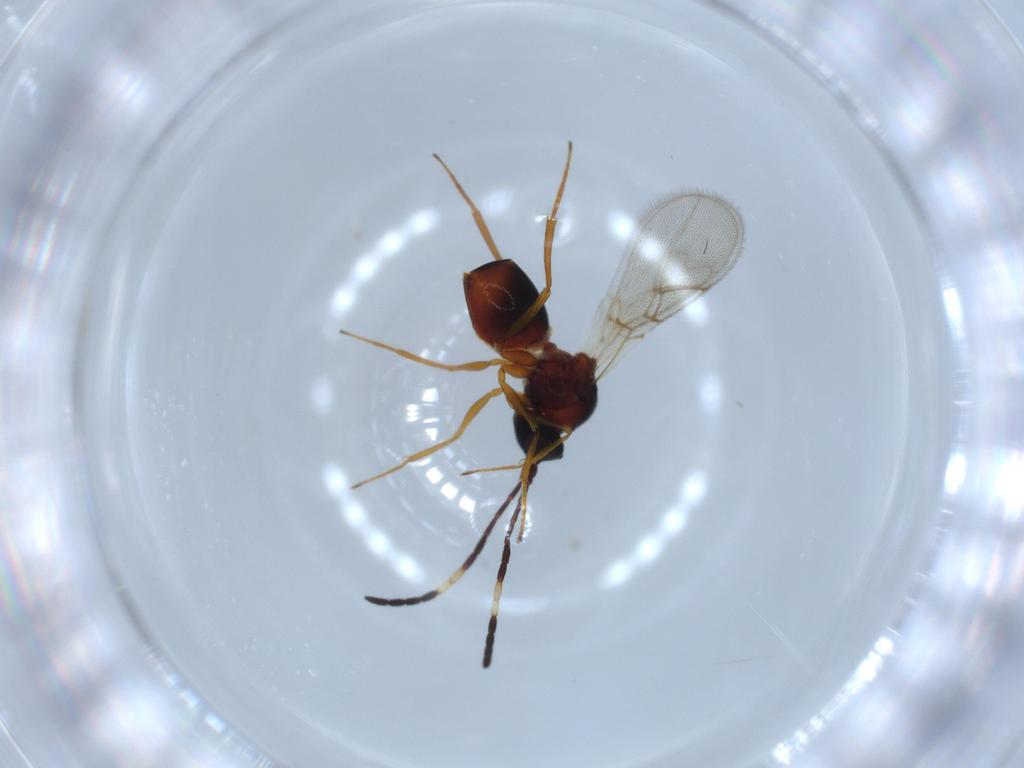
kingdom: Animalia
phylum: Arthropoda
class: Insecta
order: Hymenoptera
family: Figitidae
